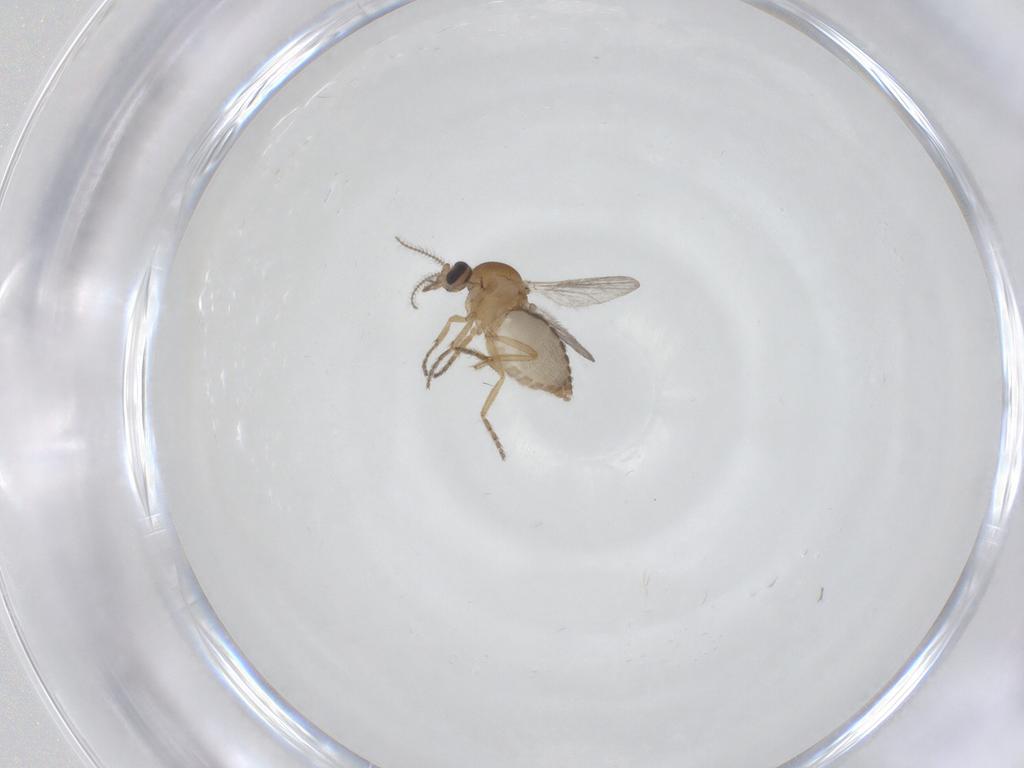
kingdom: Animalia
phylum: Arthropoda
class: Insecta
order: Diptera
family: Ceratopogonidae
